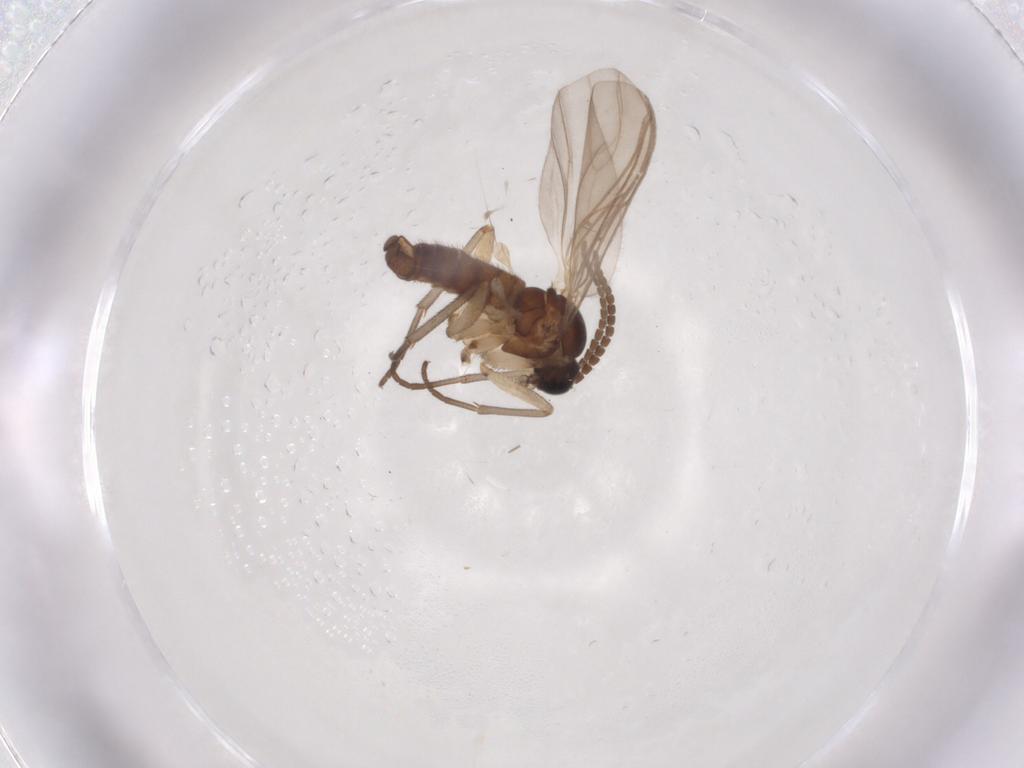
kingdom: Animalia
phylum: Arthropoda
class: Insecta
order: Diptera
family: Sciaridae
